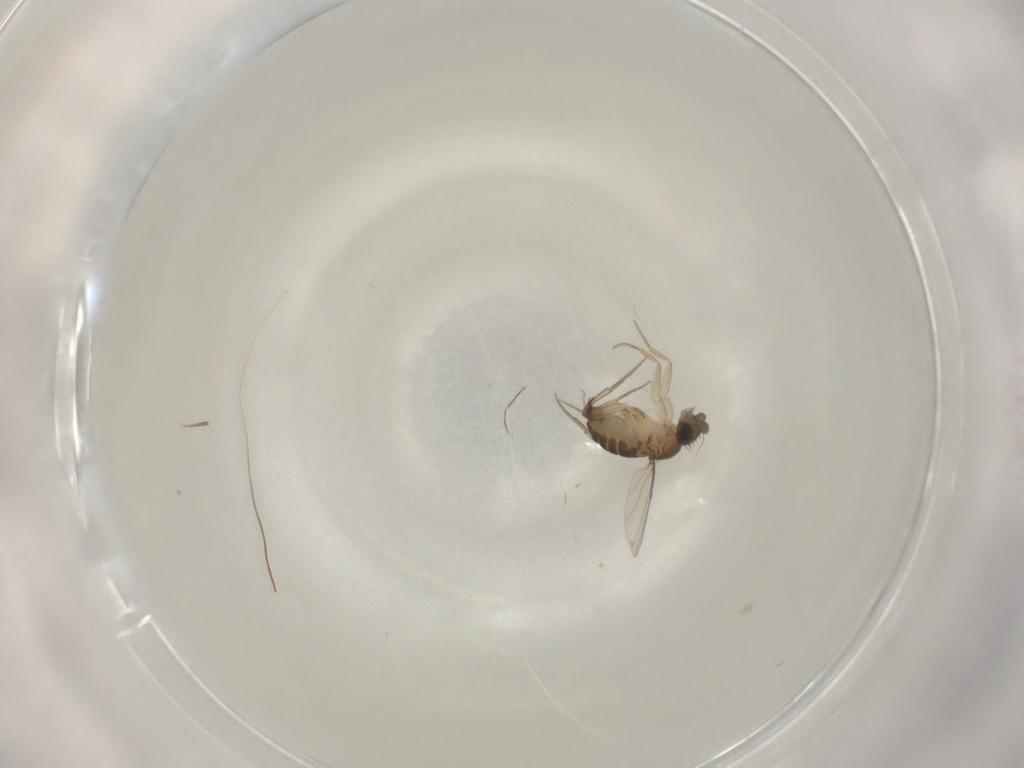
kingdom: Animalia
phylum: Arthropoda
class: Insecta
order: Diptera
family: Phoridae
